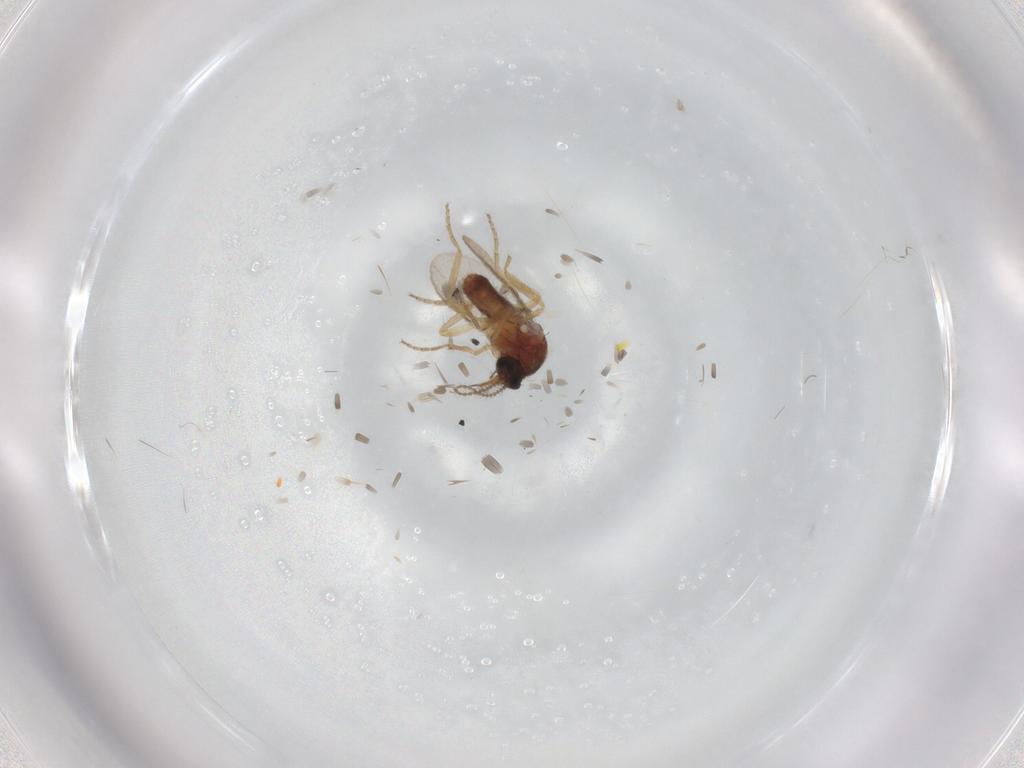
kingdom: Animalia
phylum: Arthropoda
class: Insecta
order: Diptera
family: Ceratopogonidae
